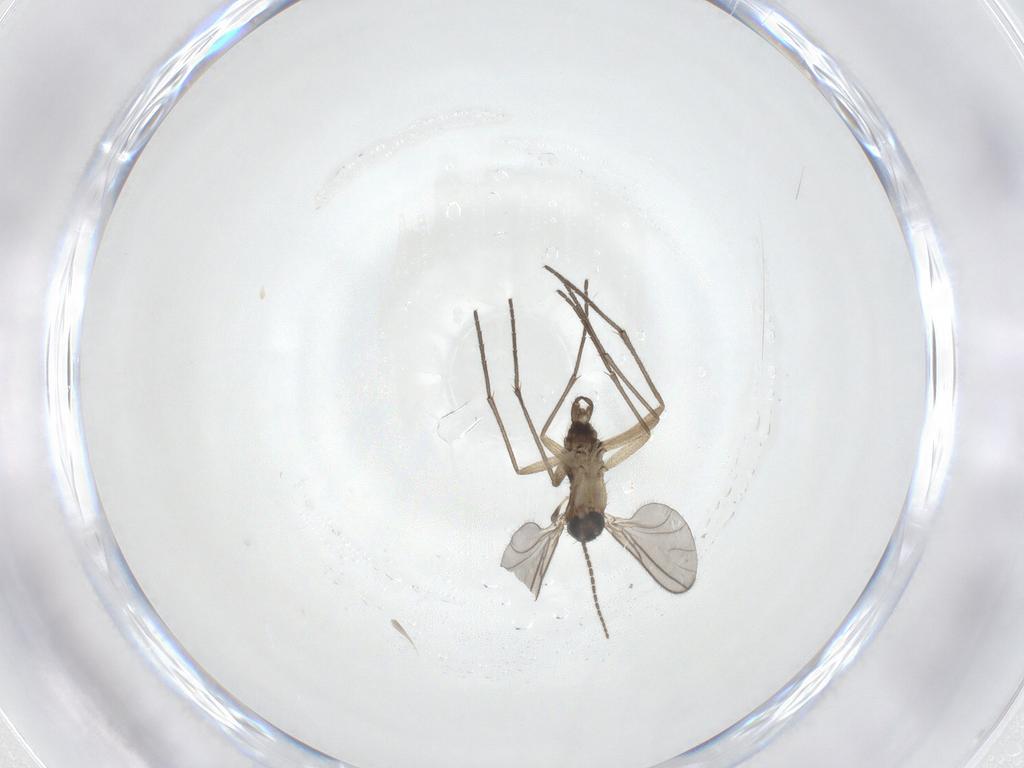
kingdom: Animalia
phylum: Arthropoda
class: Insecta
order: Diptera
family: Sciaridae
